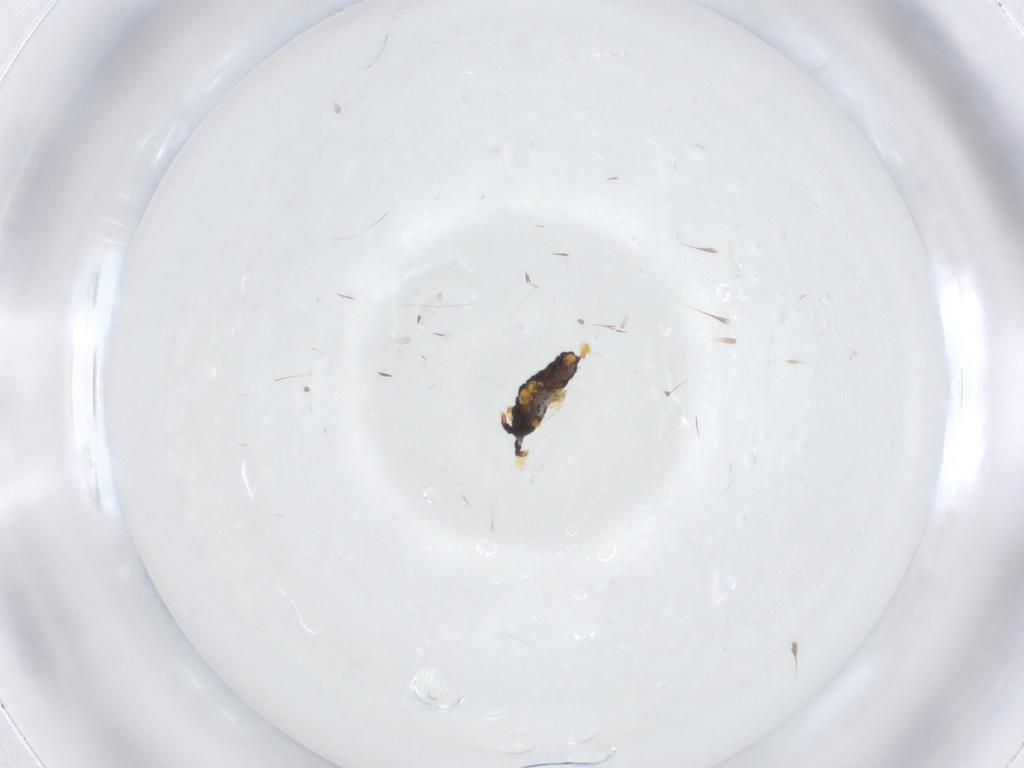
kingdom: Animalia
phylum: Arthropoda
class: Collembola
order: Poduromorpha
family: Neanuridae
